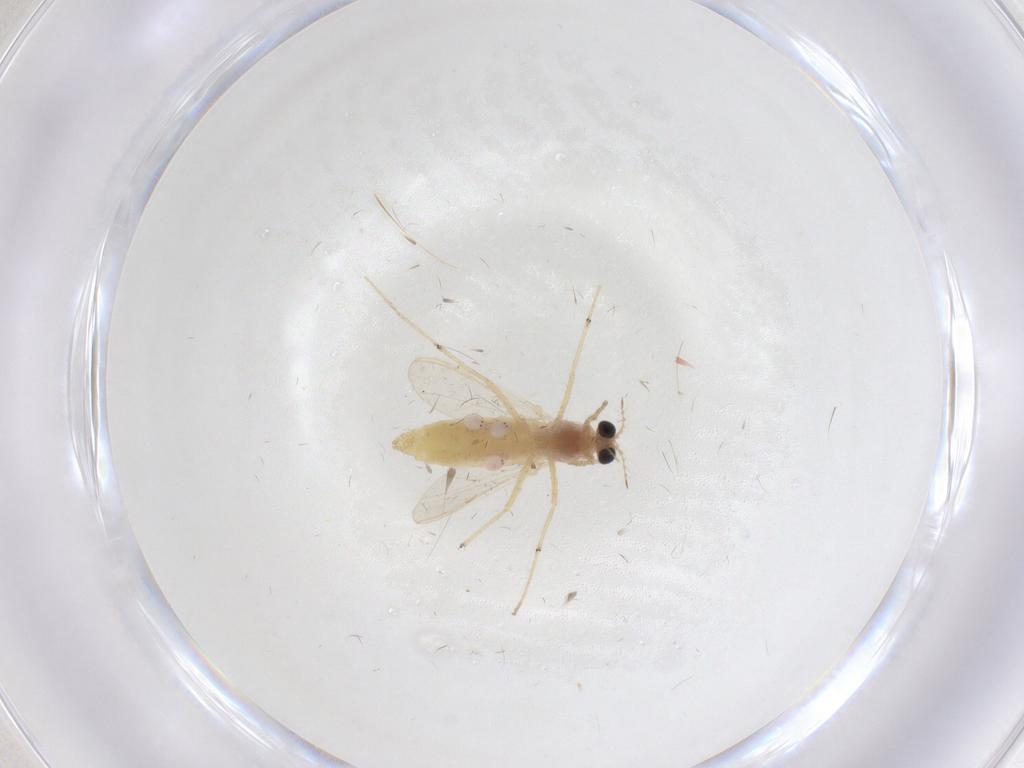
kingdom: Animalia
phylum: Arthropoda
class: Insecta
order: Diptera
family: Chironomidae
